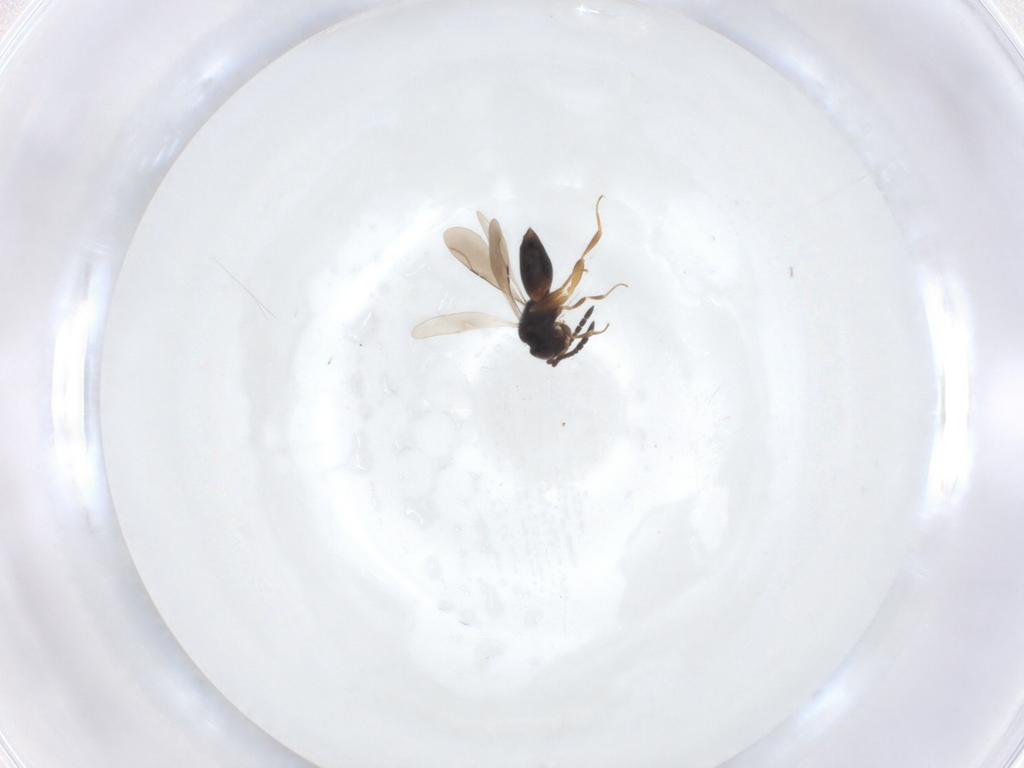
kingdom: Animalia
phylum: Arthropoda
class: Insecta
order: Hymenoptera
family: Ceraphronidae
